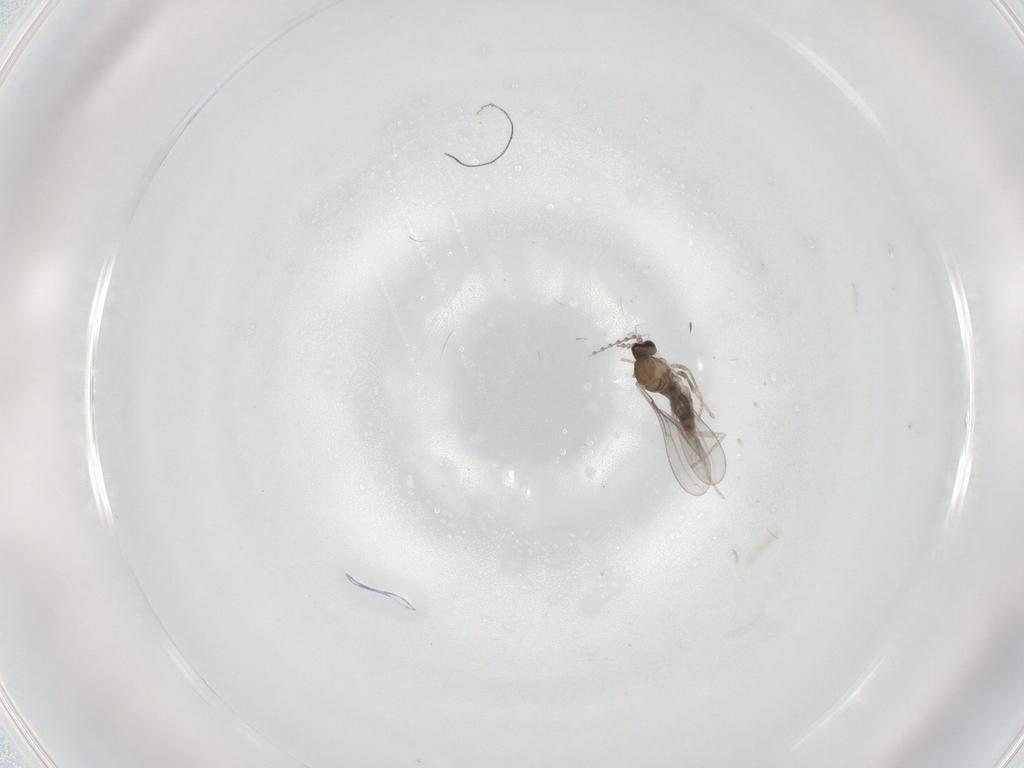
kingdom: Animalia
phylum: Arthropoda
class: Insecta
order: Diptera
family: Cecidomyiidae
